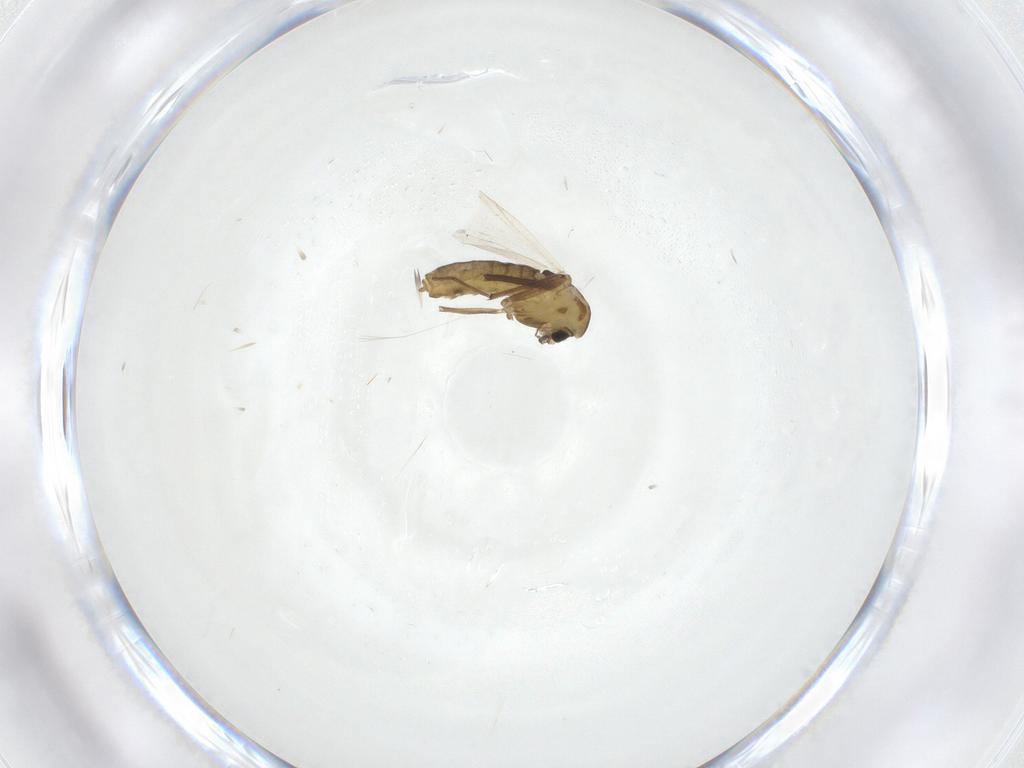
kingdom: Animalia
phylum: Arthropoda
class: Insecta
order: Diptera
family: Chironomidae
